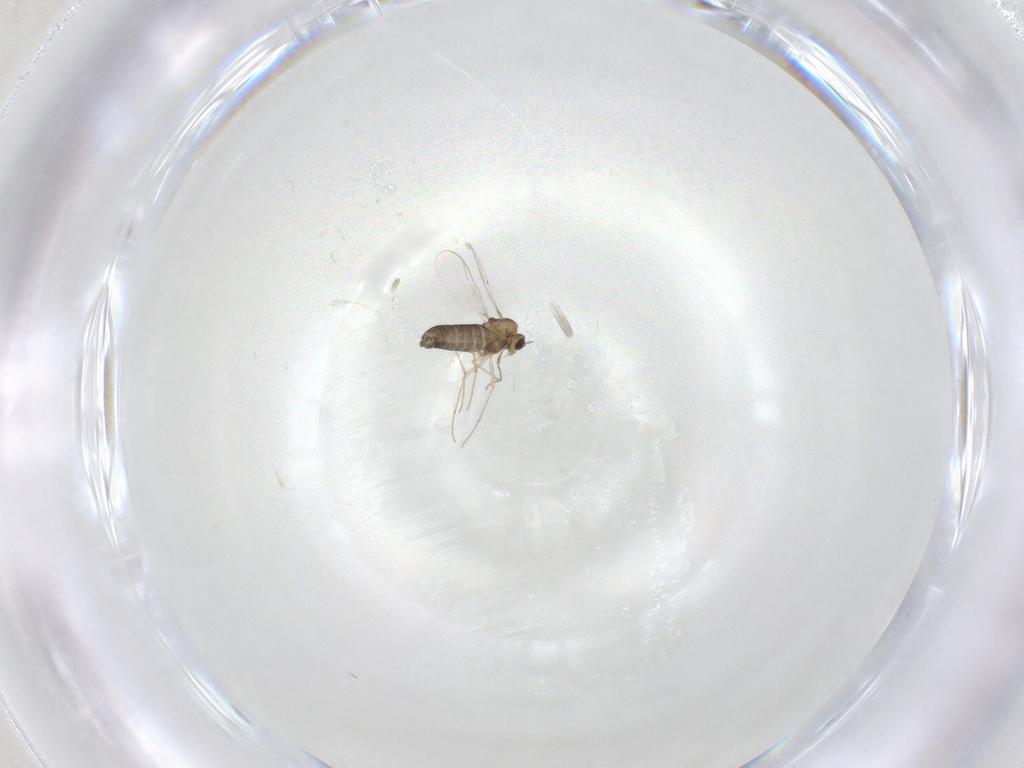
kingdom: Animalia
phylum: Arthropoda
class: Insecta
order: Diptera
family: Chironomidae
